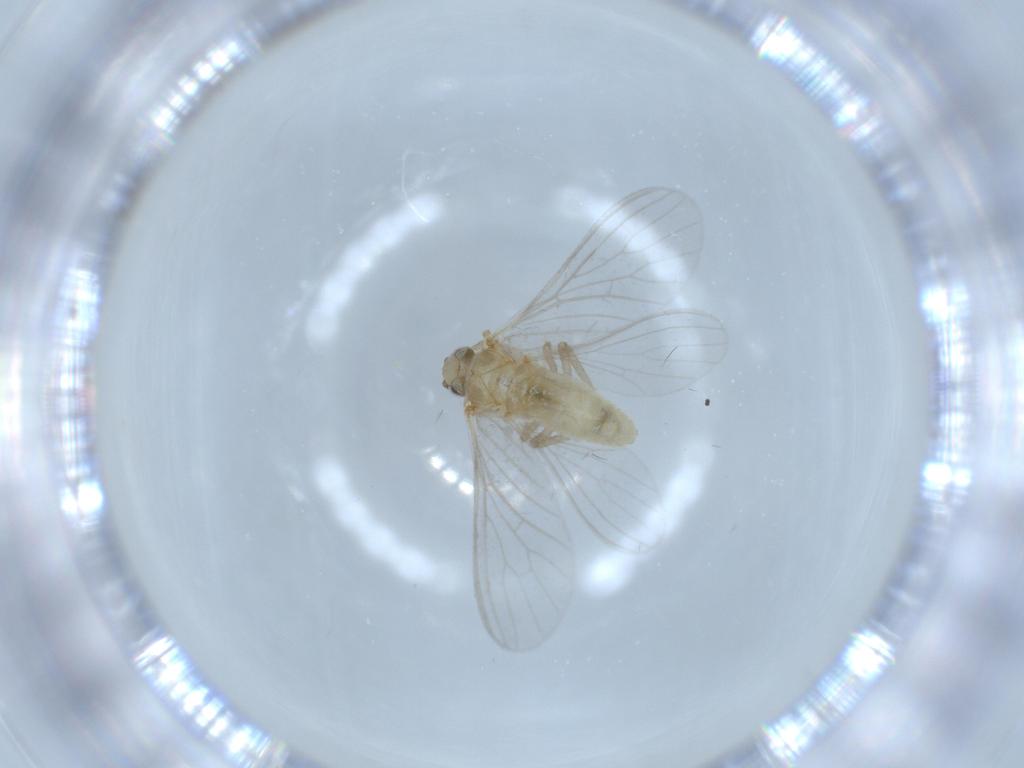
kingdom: Animalia
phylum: Arthropoda
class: Insecta
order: Neuroptera
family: Coniopterygidae
